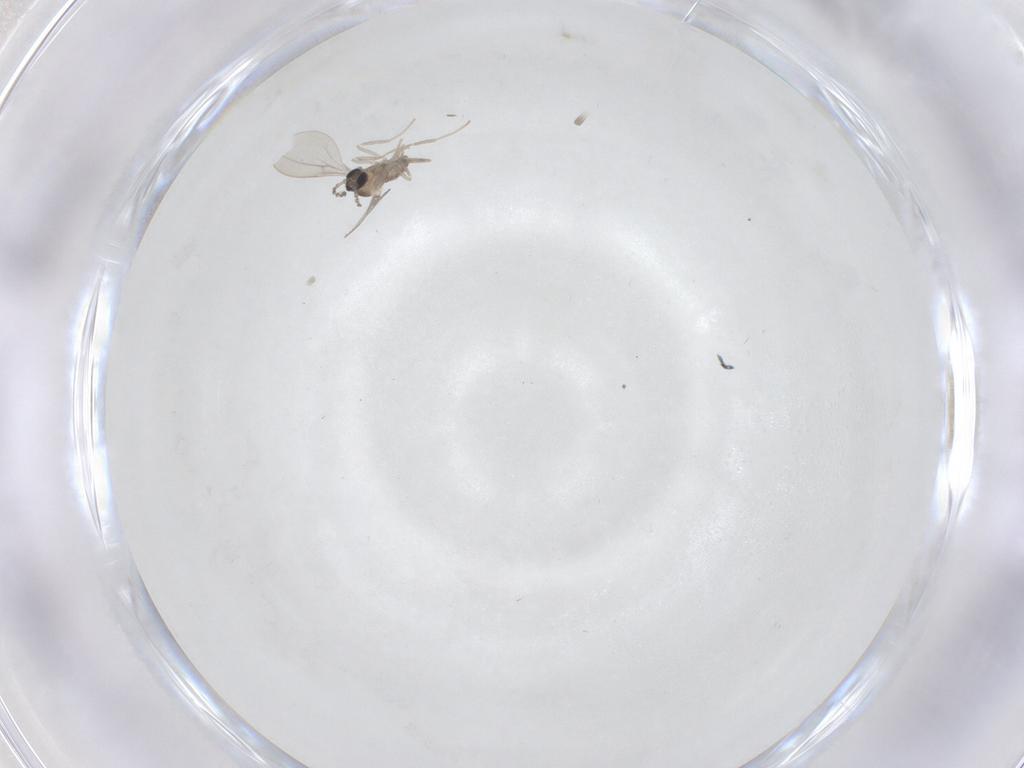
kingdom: Animalia
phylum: Arthropoda
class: Insecta
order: Diptera
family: Cecidomyiidae
